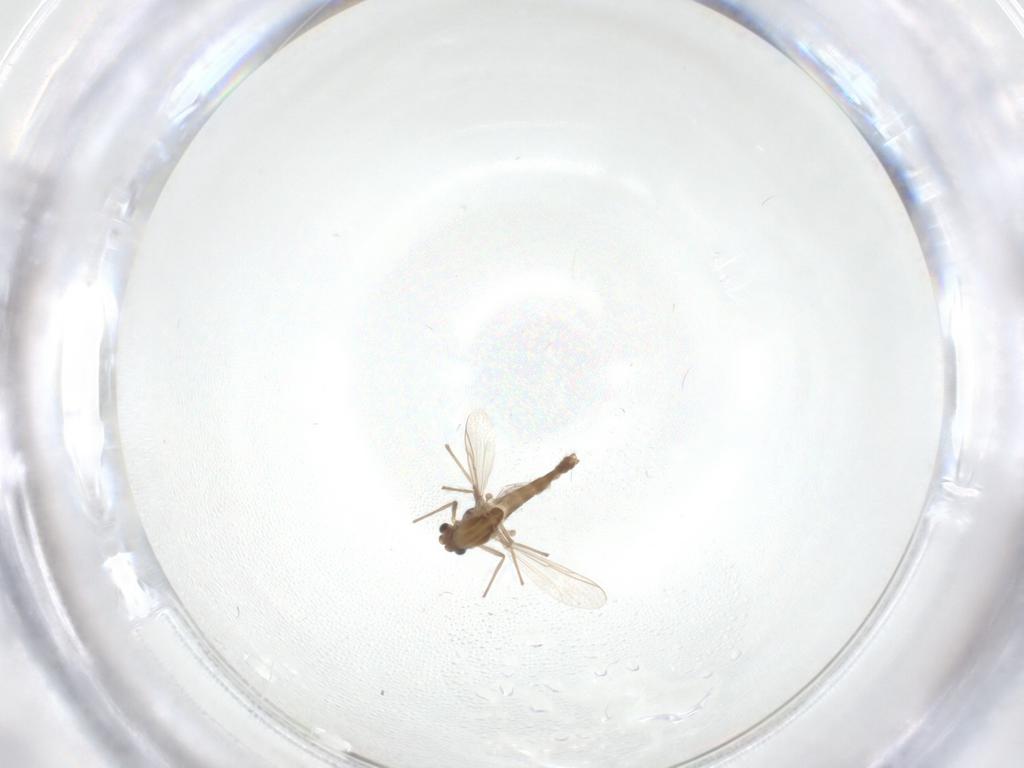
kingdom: Animalia
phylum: Arthropoda
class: Insecta
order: Diptera
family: Chironomidae
